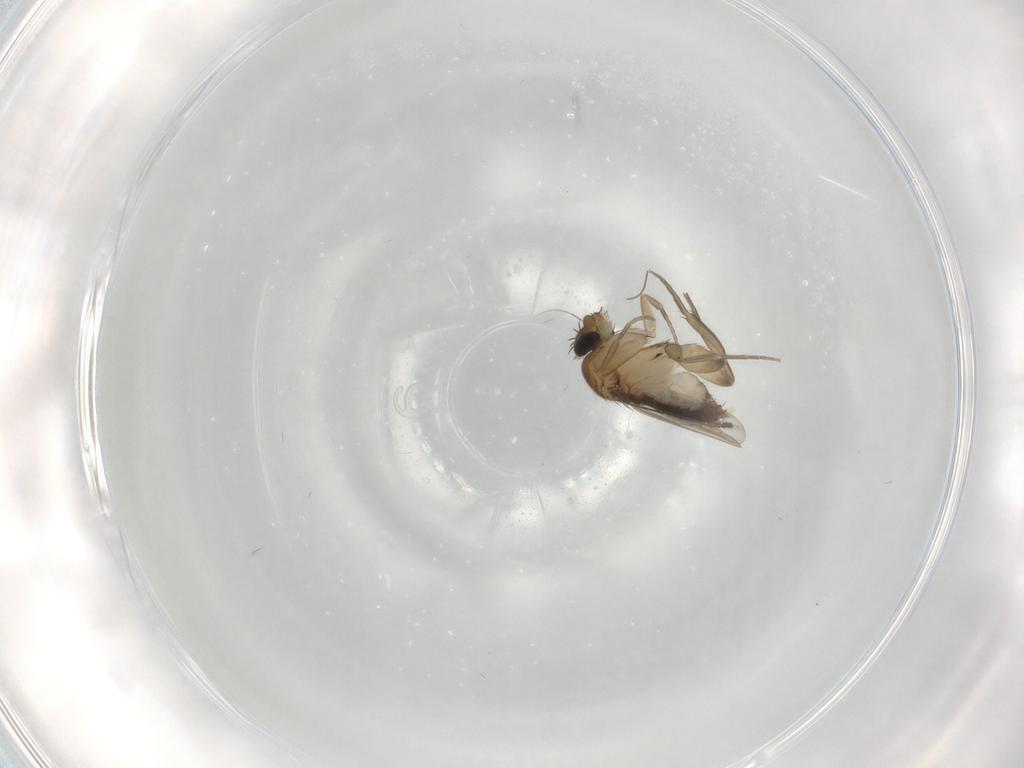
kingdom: Animalia
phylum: Arthropoda
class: Insecta
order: Diptera
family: Phoridae
